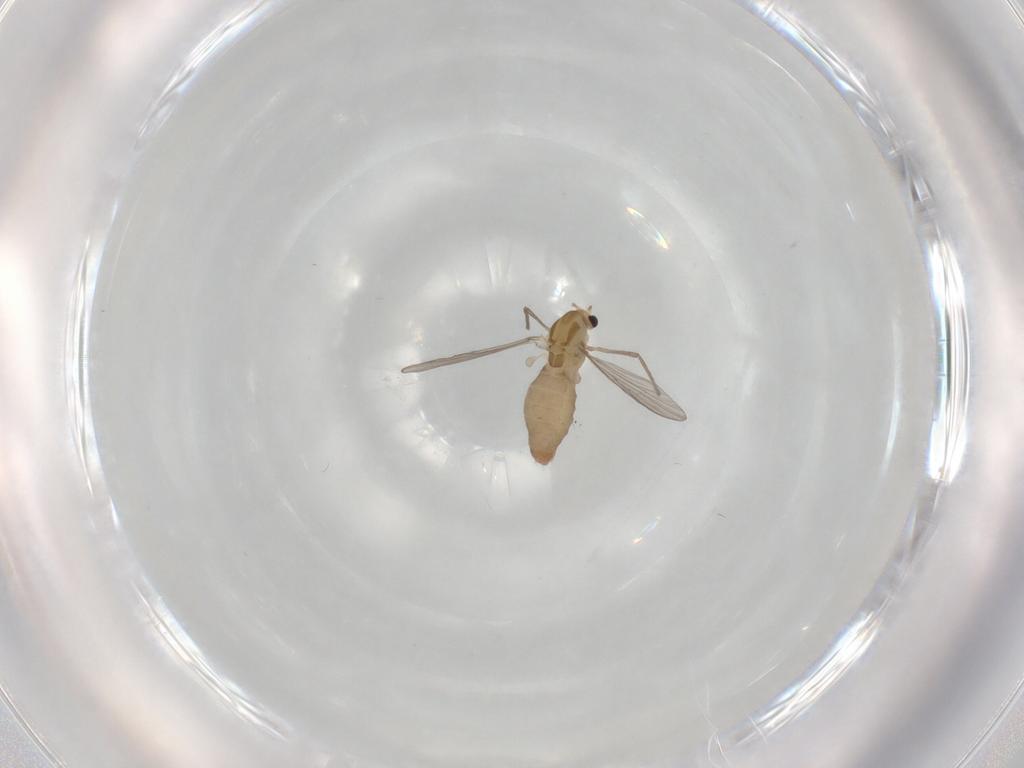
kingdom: Animalia
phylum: Arthropoda
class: Insecta
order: Diptera
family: Chironomidae
